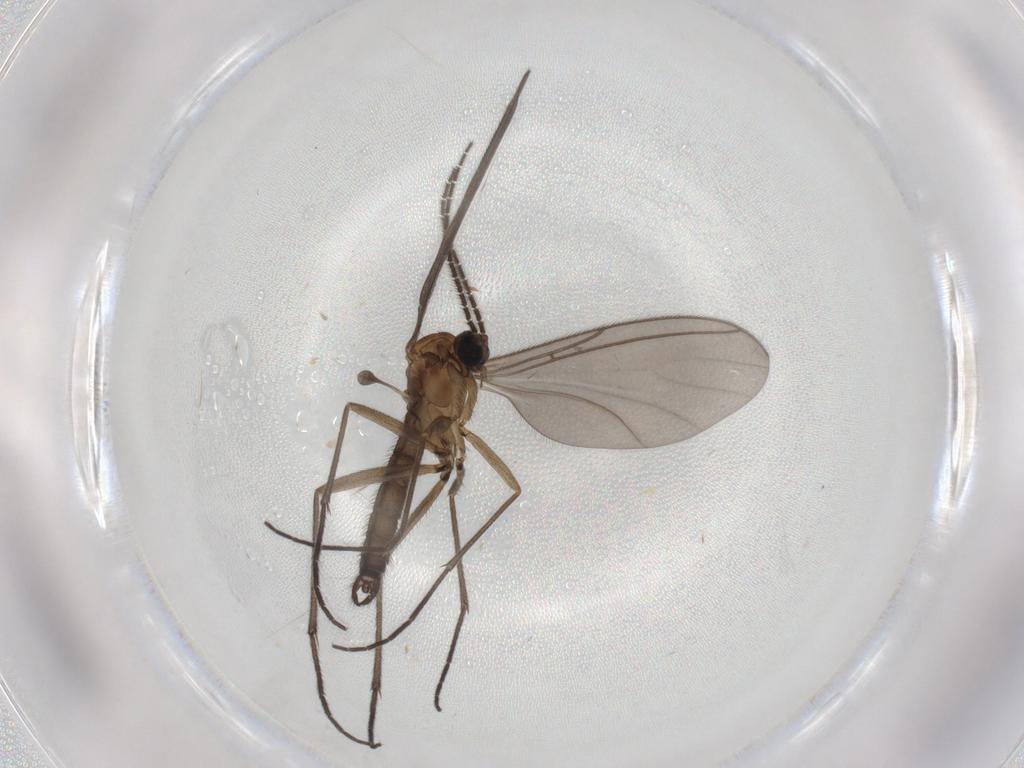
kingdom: Animalia
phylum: Arthropoda
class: Insecta
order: Diptera
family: Sciaridae
